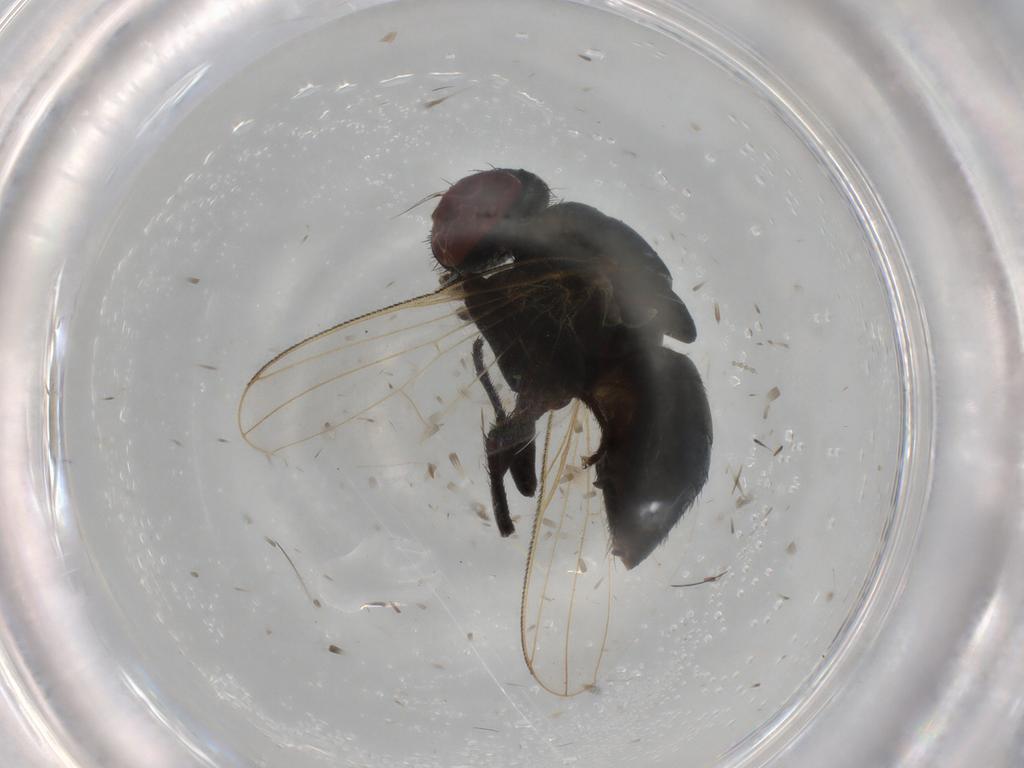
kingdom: Animalia
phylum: Arthropoda
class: Insecta
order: Diptera
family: Muscidae
